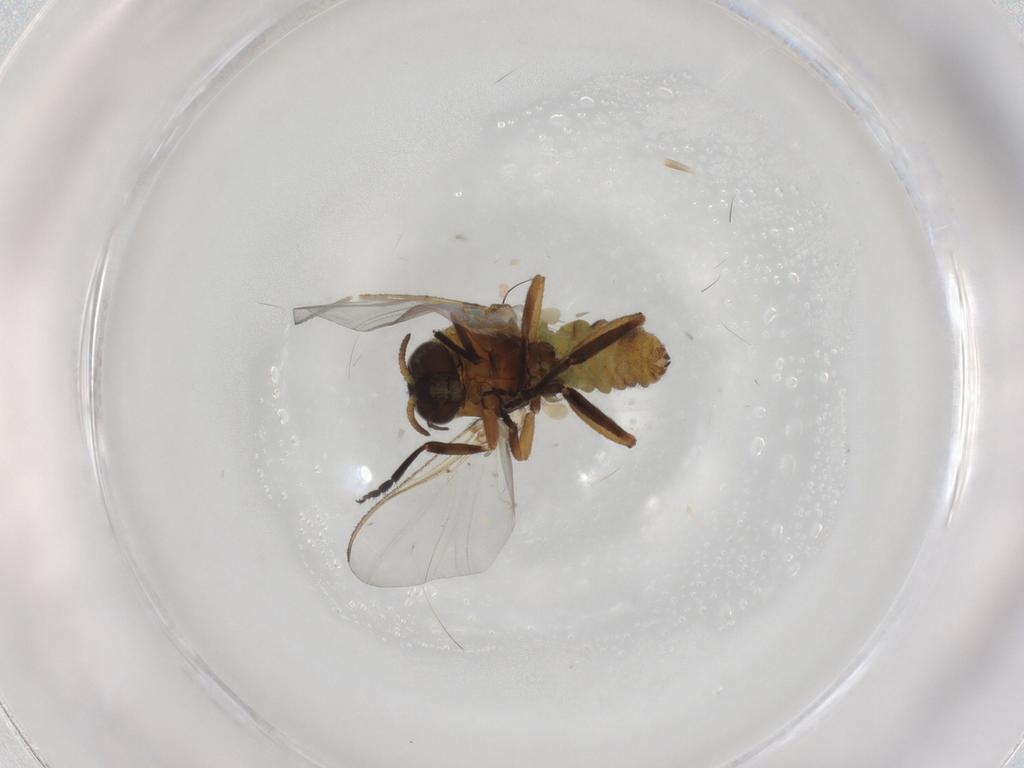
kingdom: Animalia
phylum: Arthropoda
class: Insecta
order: Diptera
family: Simuliidae
